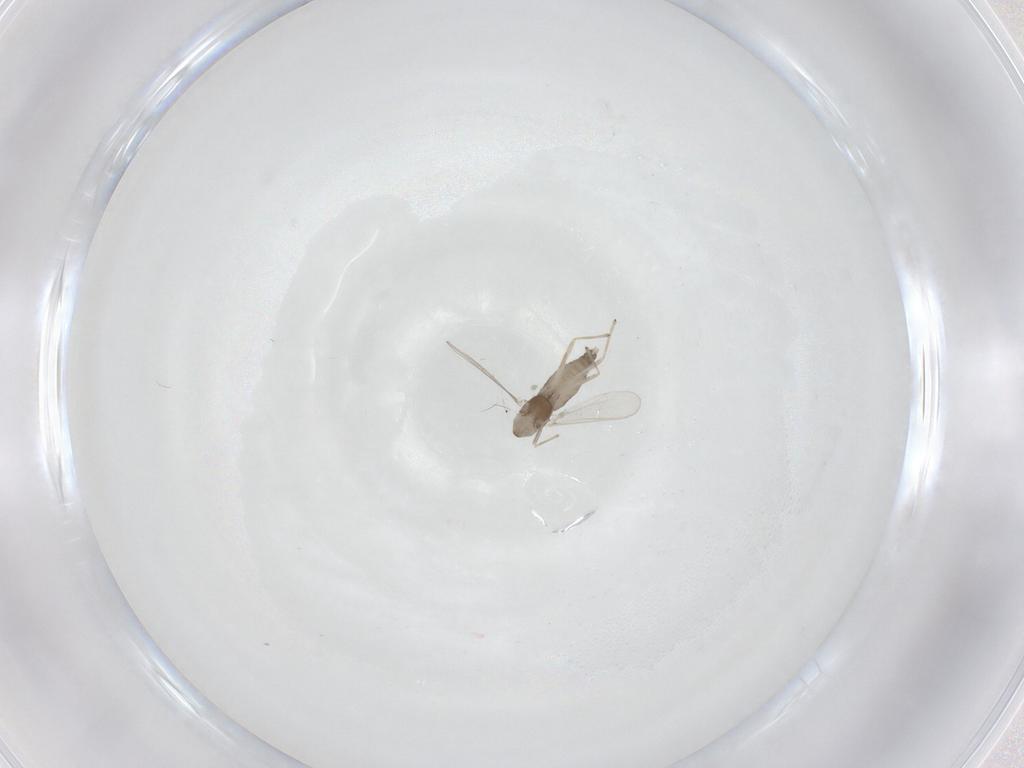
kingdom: Animalia
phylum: Arthropoda
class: Insecta
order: Diptera
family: Chironomidae
